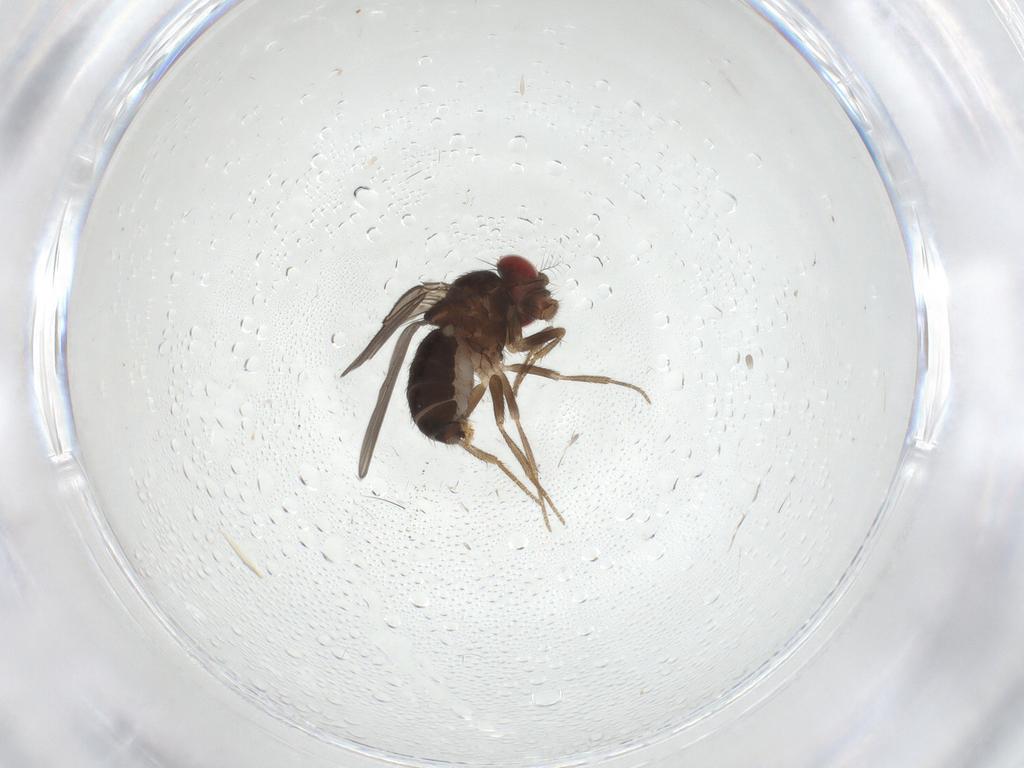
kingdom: Animalia
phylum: Arthropoda
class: Insecta
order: Diptera
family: Drosophilidae
